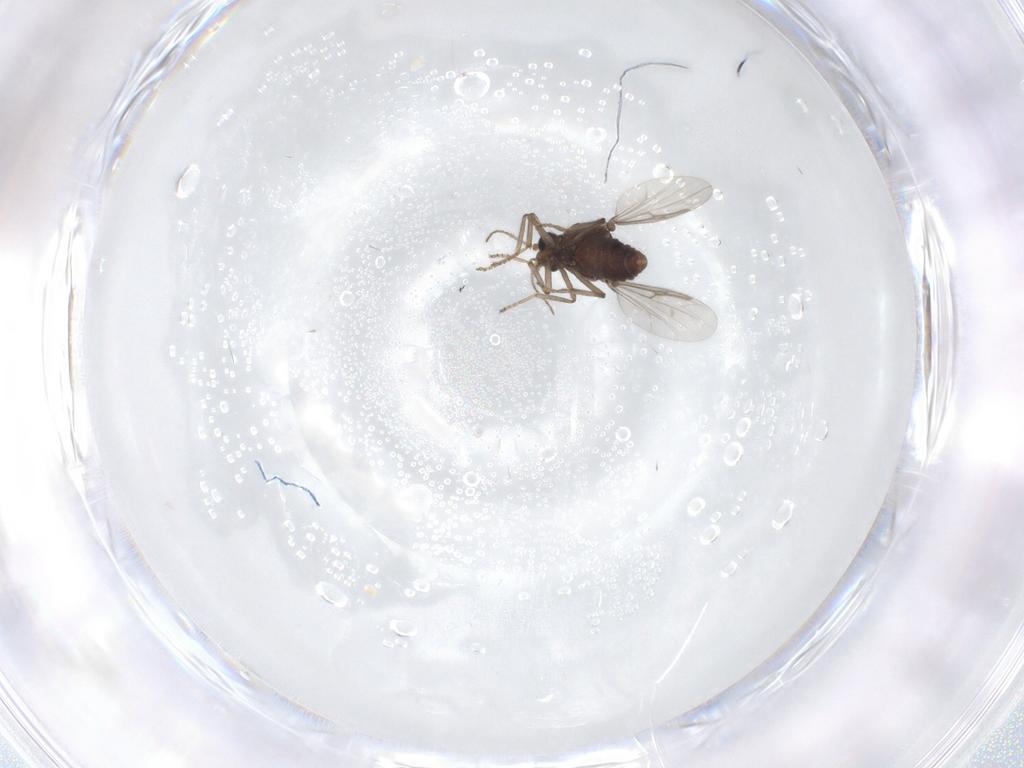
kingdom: Animalia
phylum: Arthropoda
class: Insecta
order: Diptera
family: Ceratopogonidae
